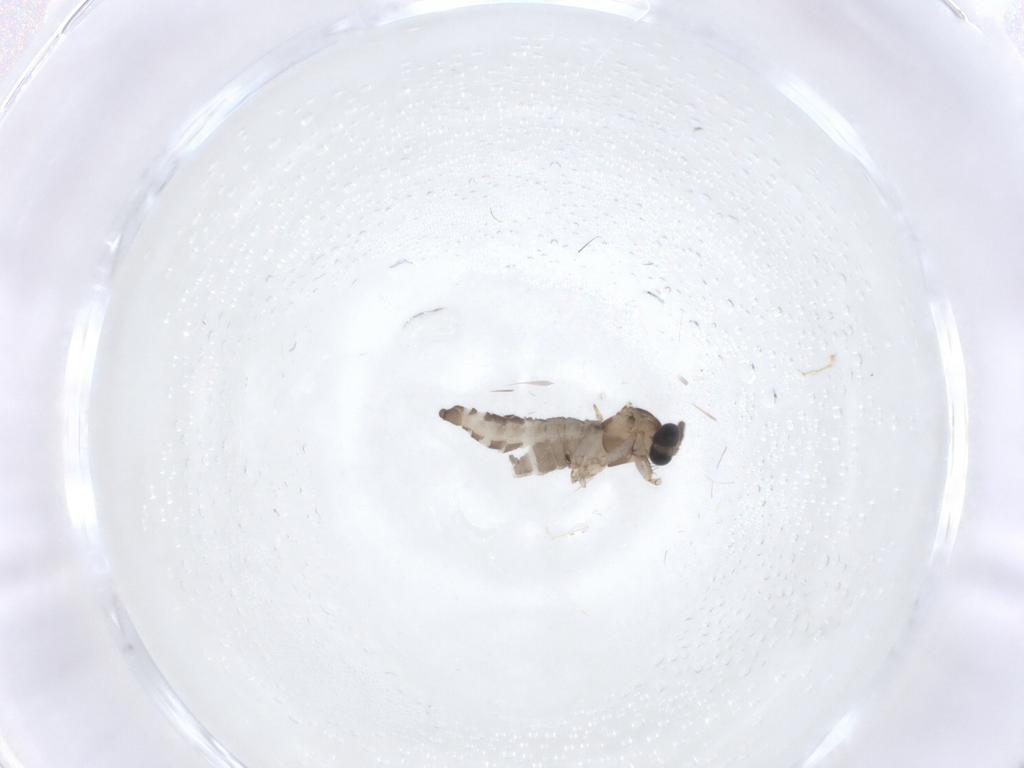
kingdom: Animalia
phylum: Arthropoda
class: Insecta
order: Diptera
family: Sciaridae
